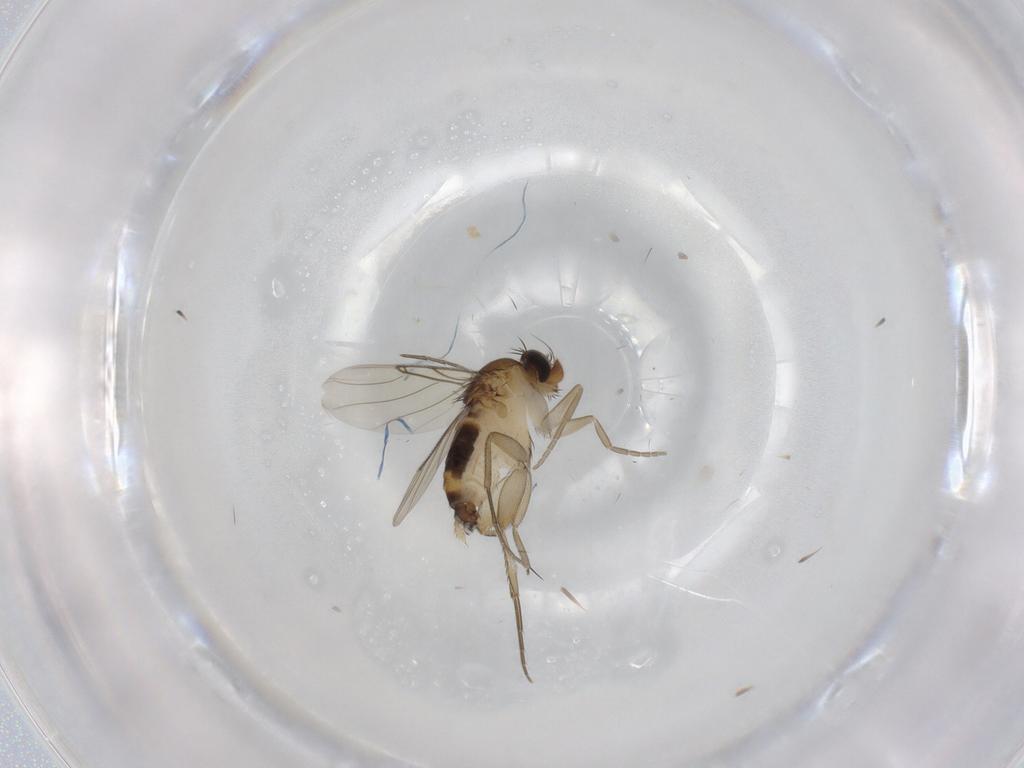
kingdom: Animalia
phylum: Arthropoda
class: Insecta
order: Diptera
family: Phoridae
